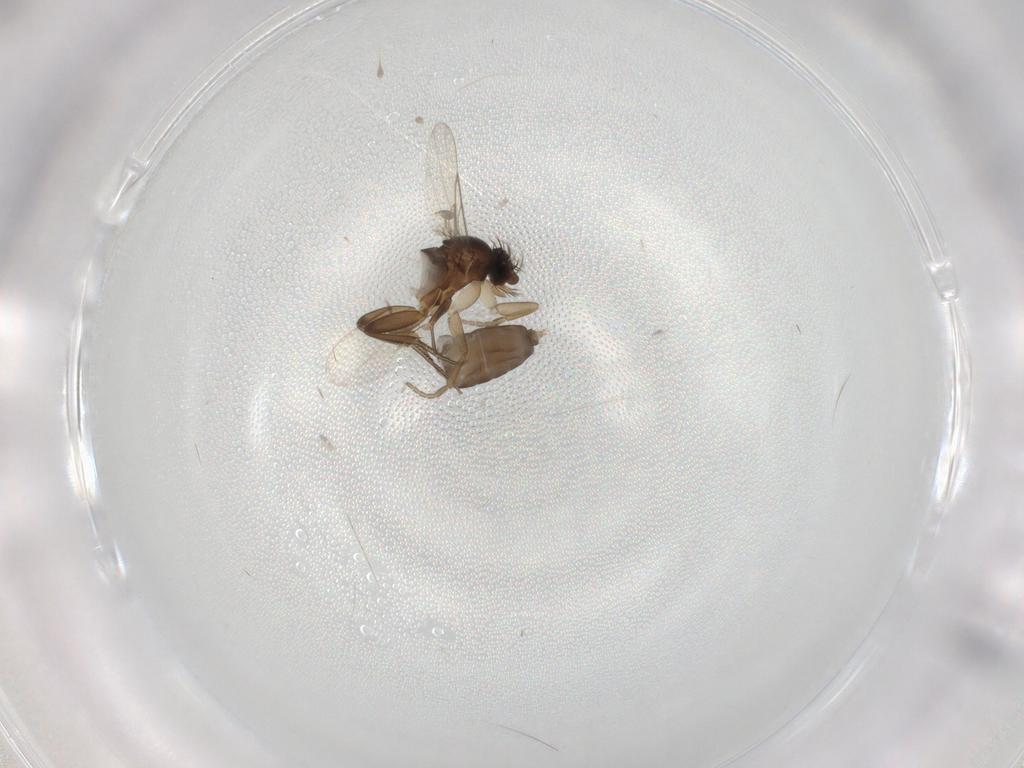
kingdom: Animalia
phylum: Arthropoda
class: Insecta
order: Diptera
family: Phoridae
